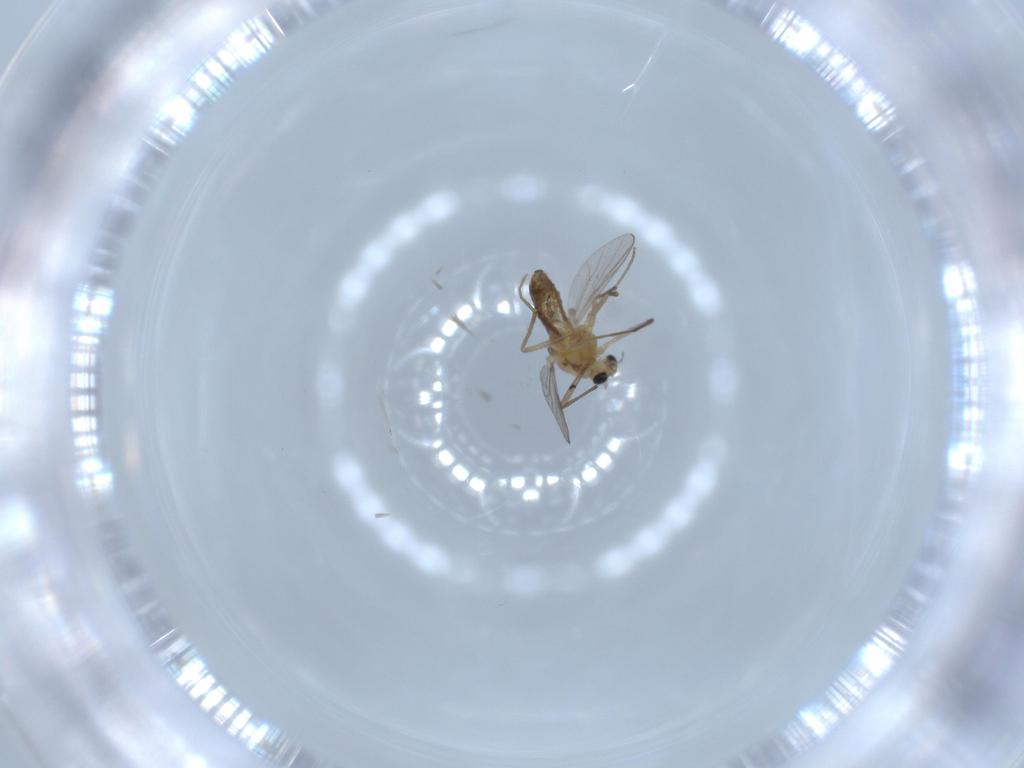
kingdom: Animalia
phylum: Arthropoda
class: Insecta
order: Diptera
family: Chironomidae
